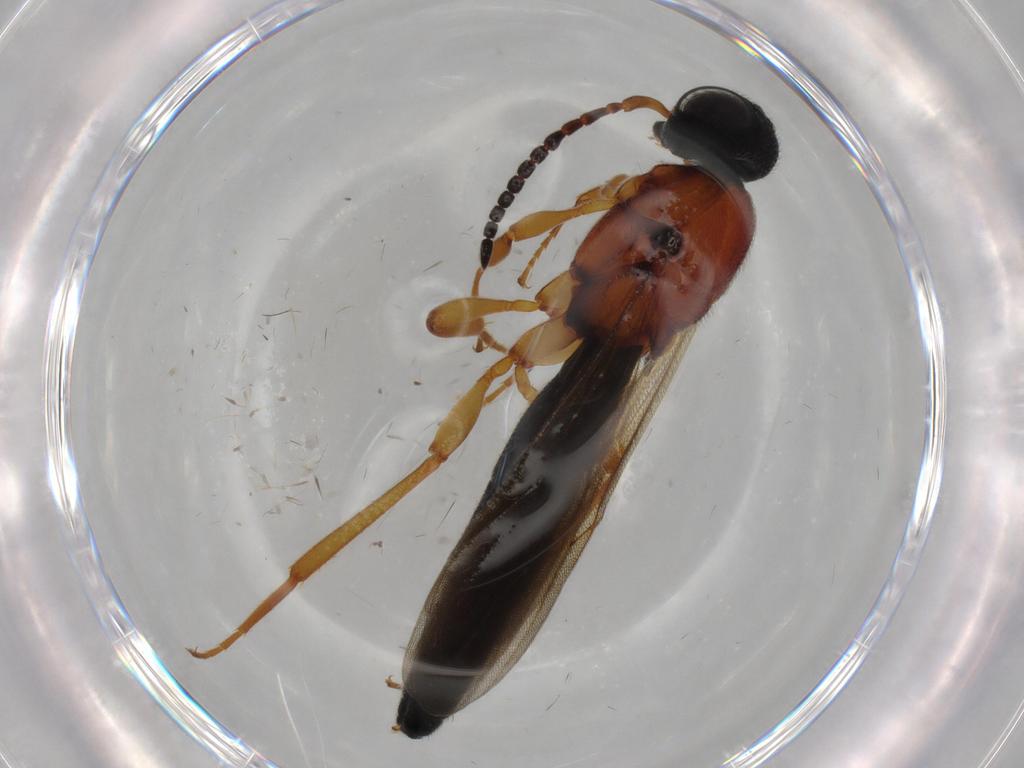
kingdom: Animalia
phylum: Arthropoda
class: Insecta
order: Hymenoptera
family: Scelionidae
